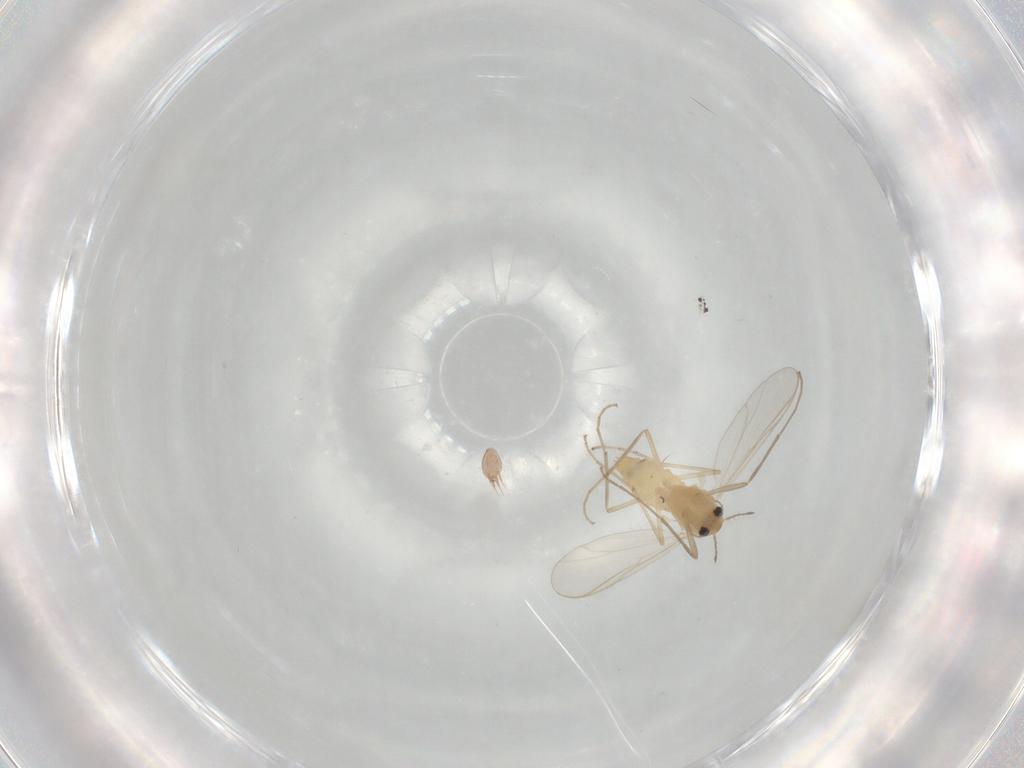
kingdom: Animalia
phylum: Arthropoda
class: Insecta
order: Diptera
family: Chironomidae
